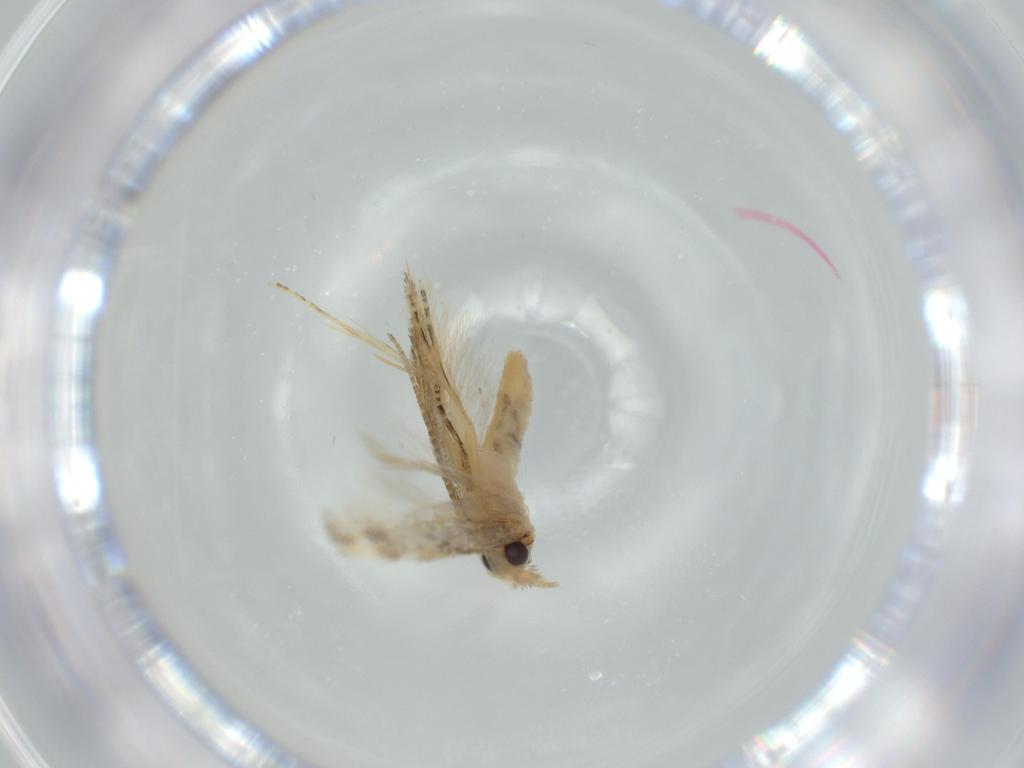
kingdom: Animalia
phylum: Arthropoda
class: Insecta
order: Lepidoptera
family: Bucculatricidae
